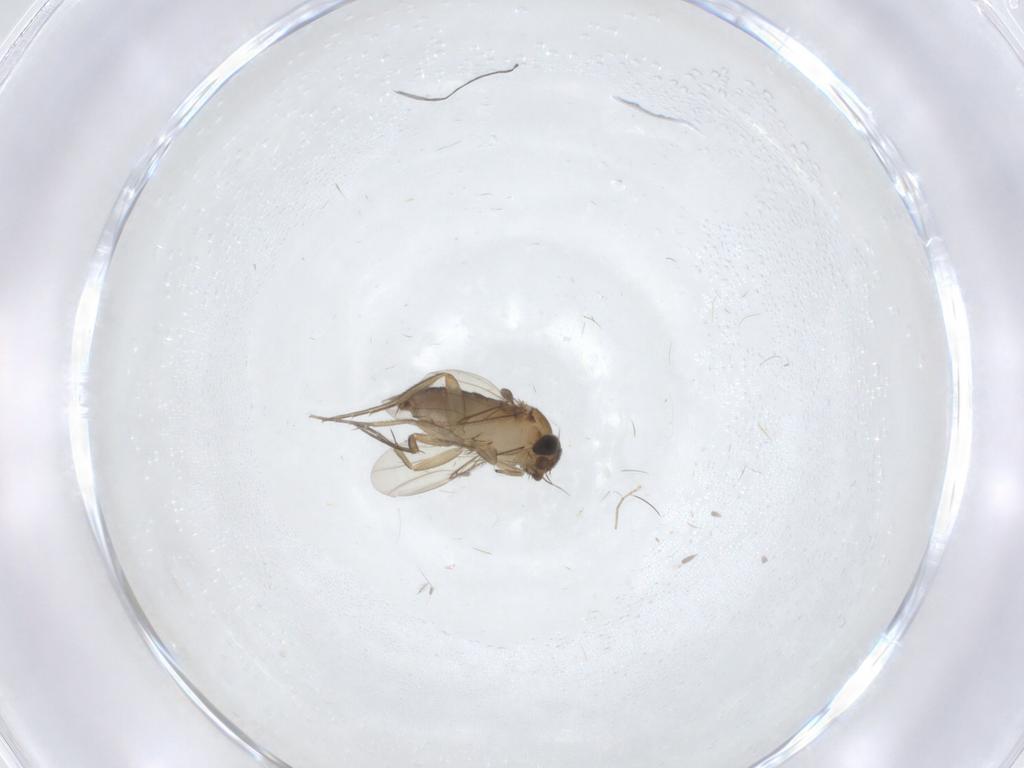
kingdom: Animalia
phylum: Arthropoda
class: Insecta
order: Diptera
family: Phoridae
